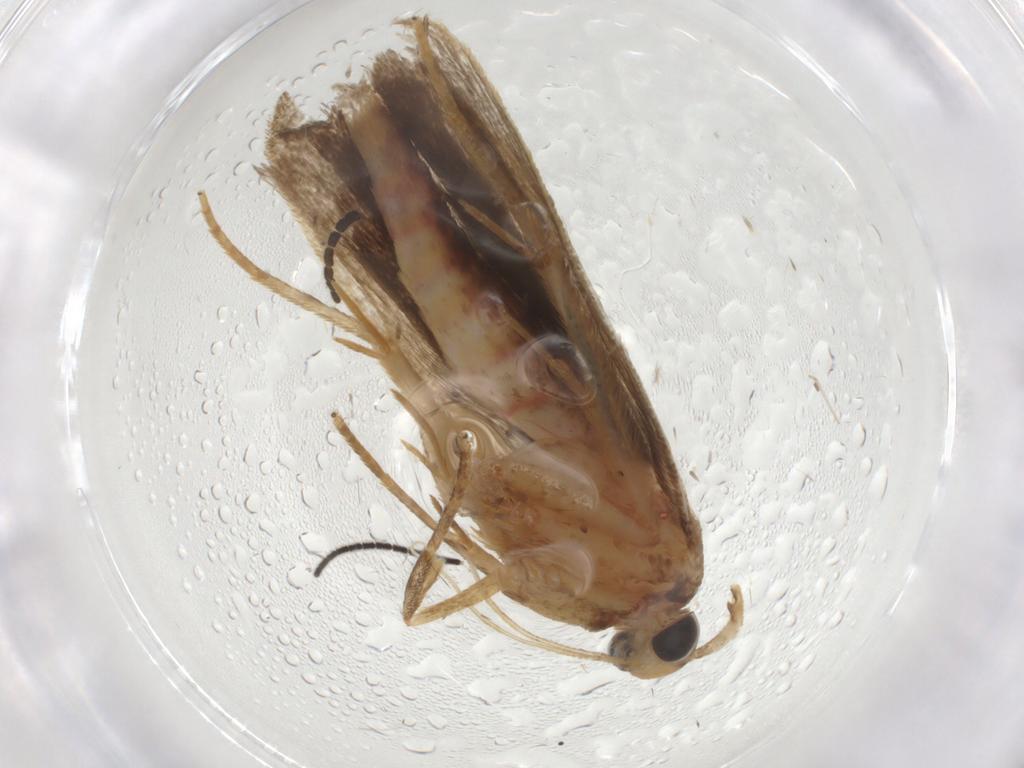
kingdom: Animalia
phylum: Arthropoda
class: Insecta
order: Lepidoptera
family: Autostichidae
